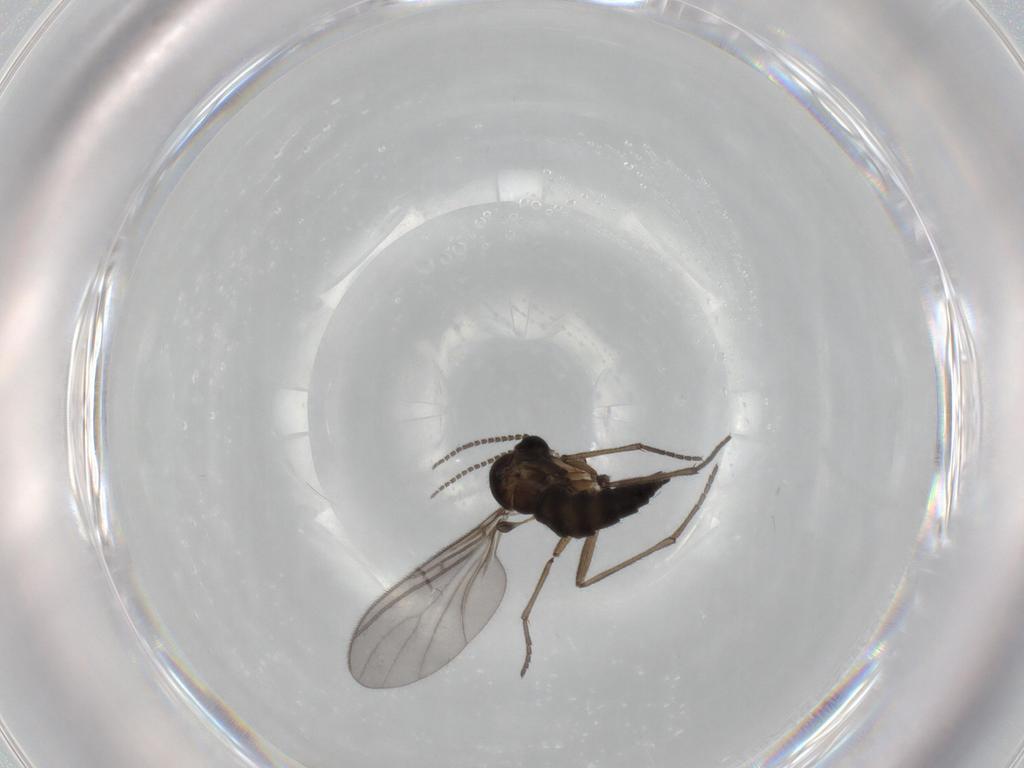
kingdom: Animalia
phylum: Arthropoda
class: Insecta
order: Diptera
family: Sciaridae
